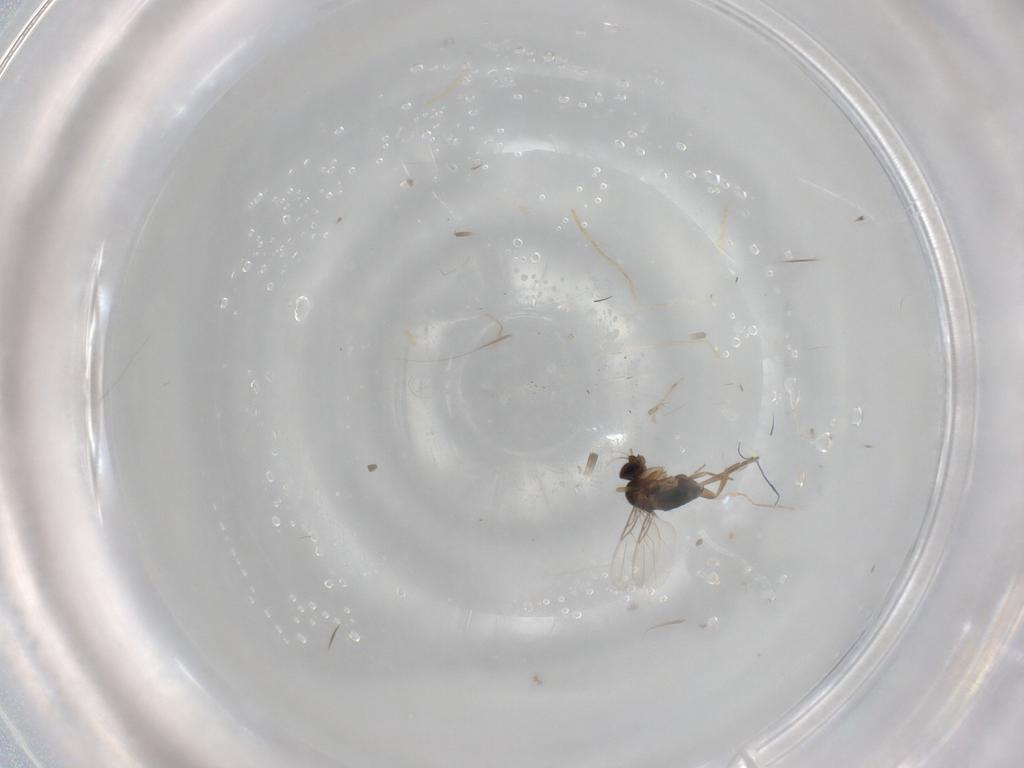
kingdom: Animalia
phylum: Arthropoda
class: Insecta
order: Diptera
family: Phoridae
